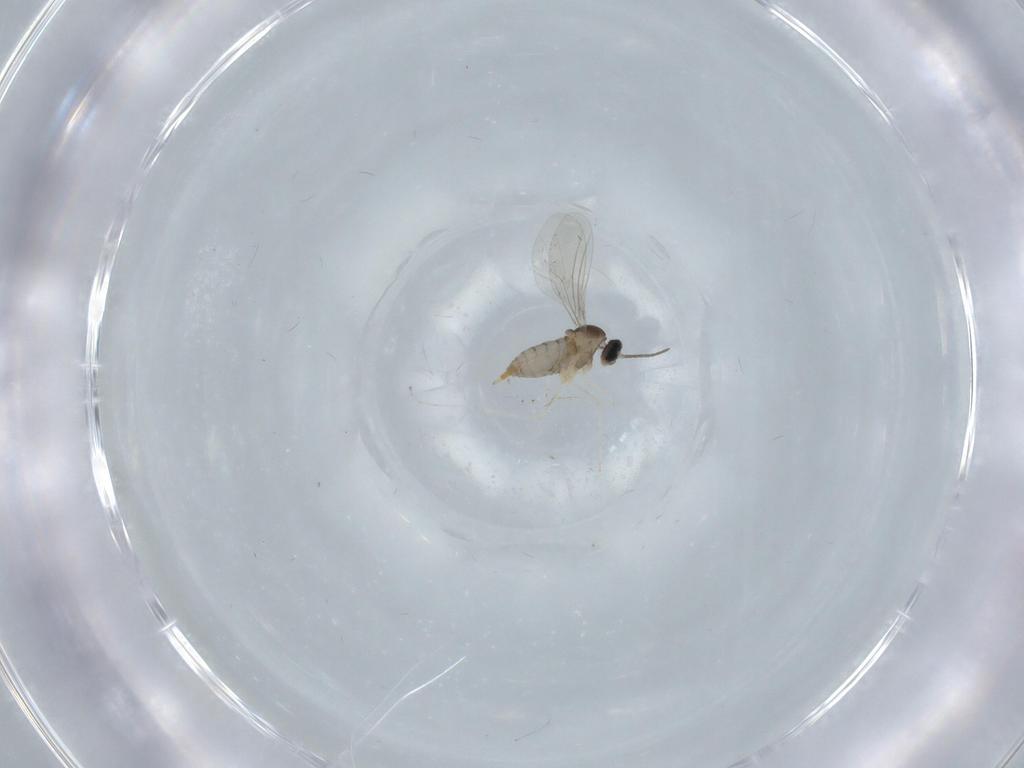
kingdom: Animalia
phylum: Arthropoda
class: Insecta
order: Diptera
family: Cecidomyiidae
